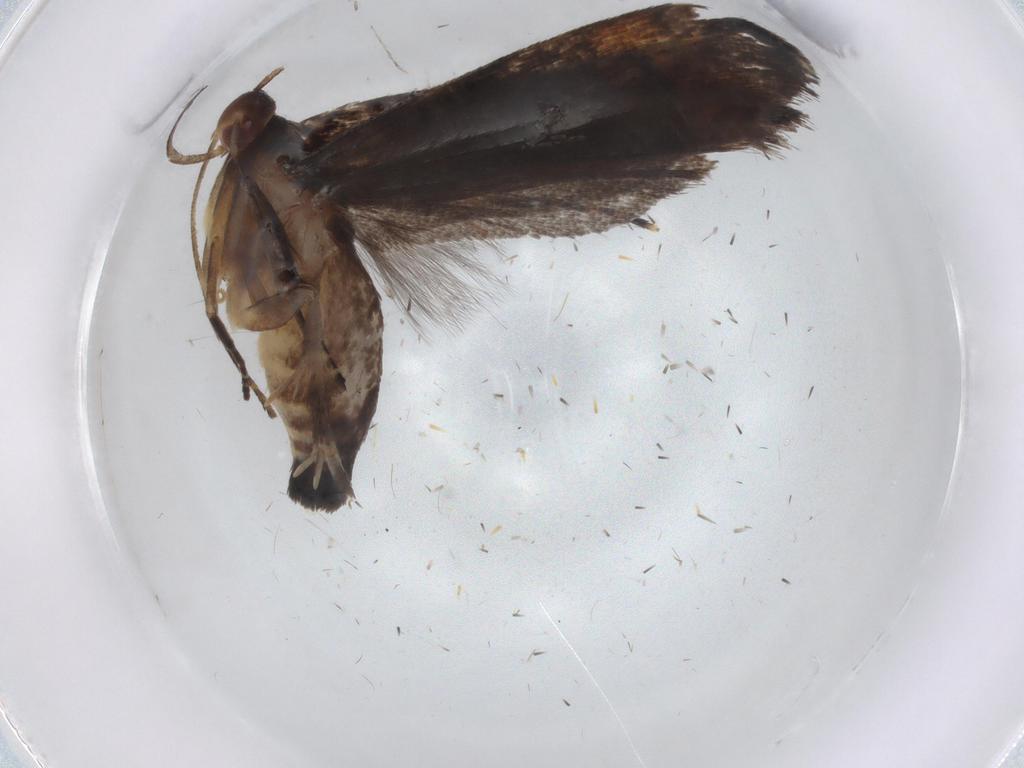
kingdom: Animalia
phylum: Arthropoda
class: Insecta
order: Lepidoptera
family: Gelechiidae
